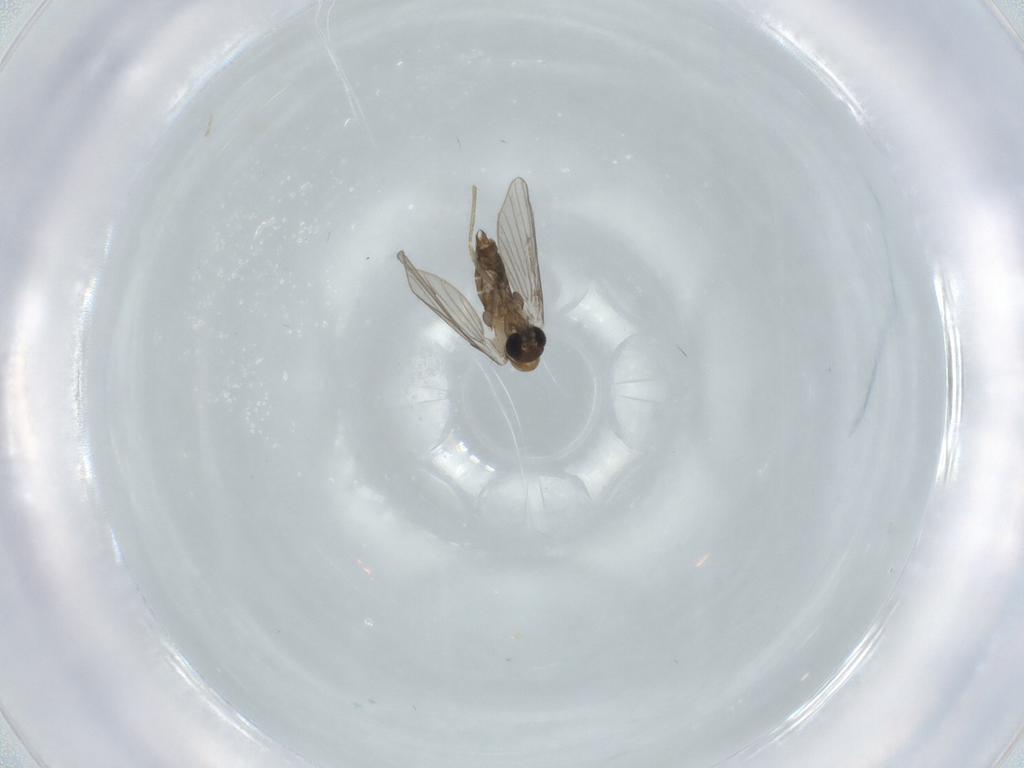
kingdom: Animalia
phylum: Arthropoda
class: Insecta
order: Diptera
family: Psychodidae
